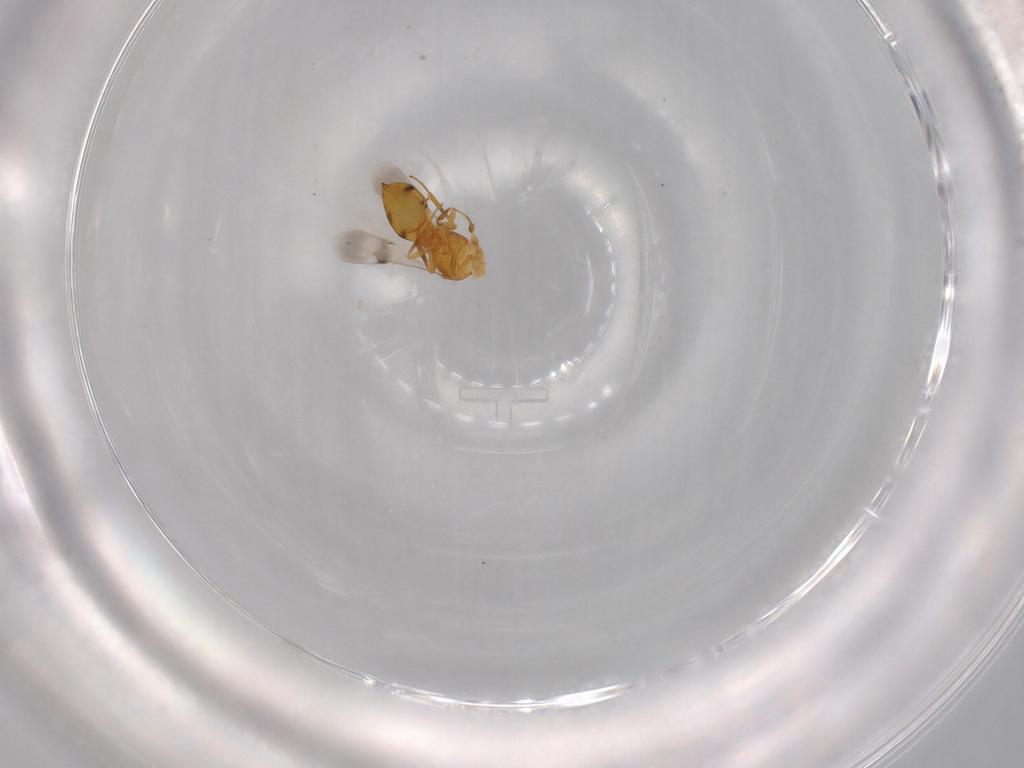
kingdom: Animalia
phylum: Arthropoda
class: Insecta
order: Hymenoptera
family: Scelionidae
